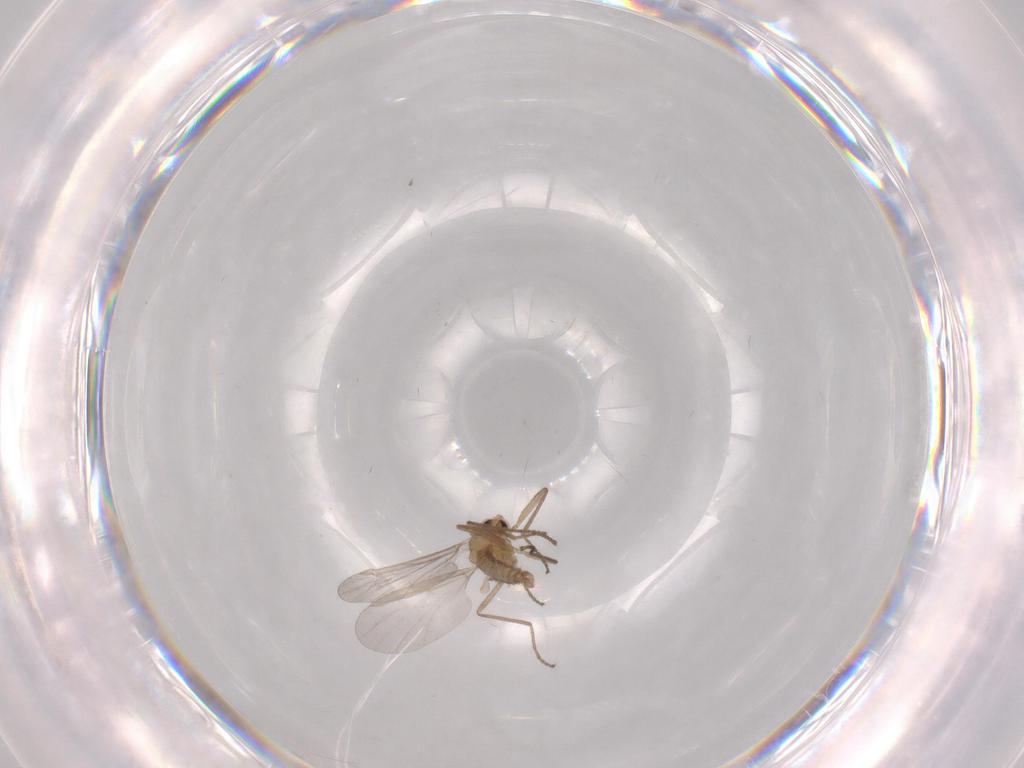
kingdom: Animalia
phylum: Arthropoda
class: Insecta
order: Diptera
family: Cecidomyiidae
